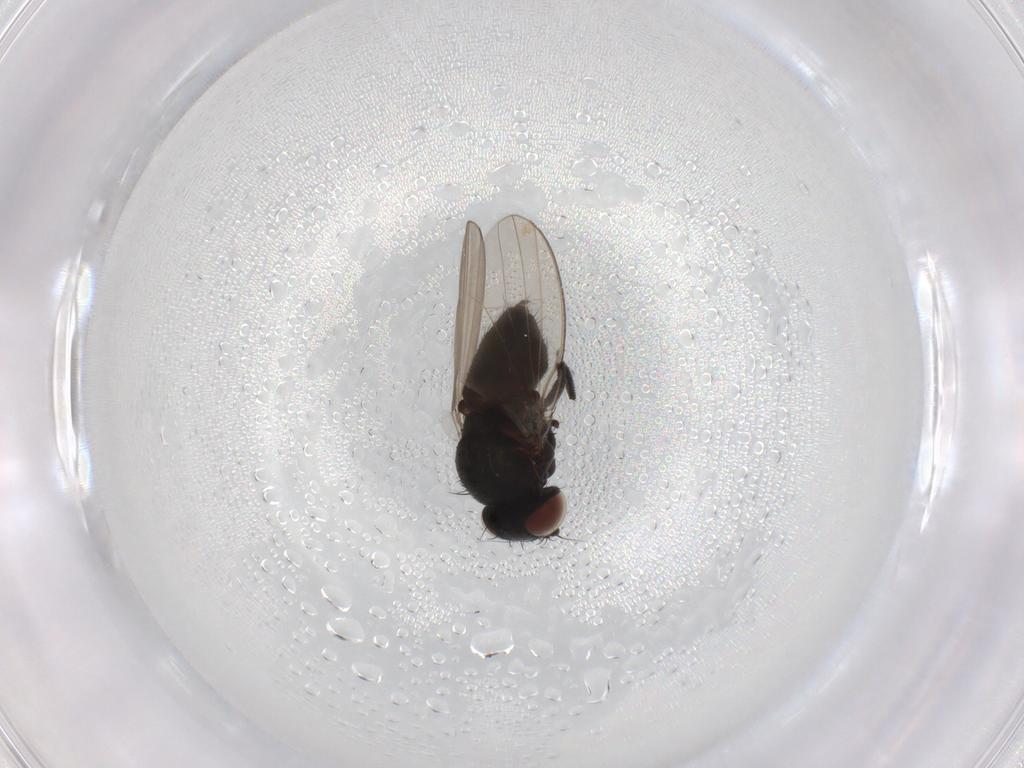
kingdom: Animalia
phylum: Arthropoda
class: Insecta
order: Diptera
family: Milichiidae
